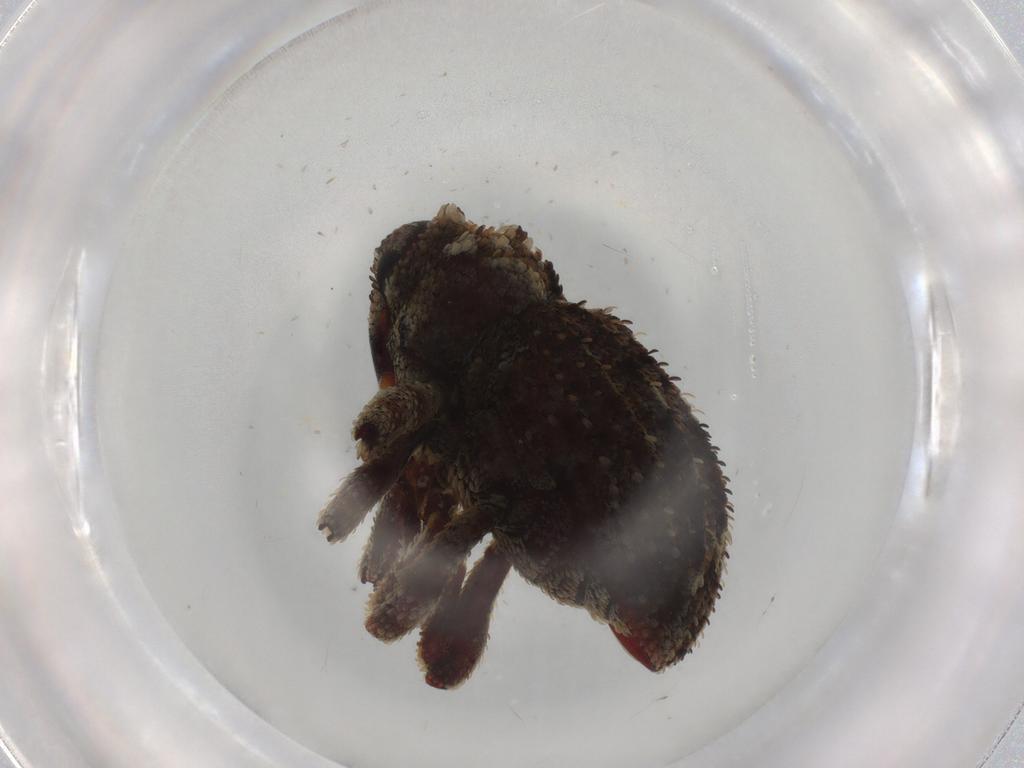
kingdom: Animalia
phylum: Arthropoda
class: Insecta
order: Coleoptera
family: Curculionidae
